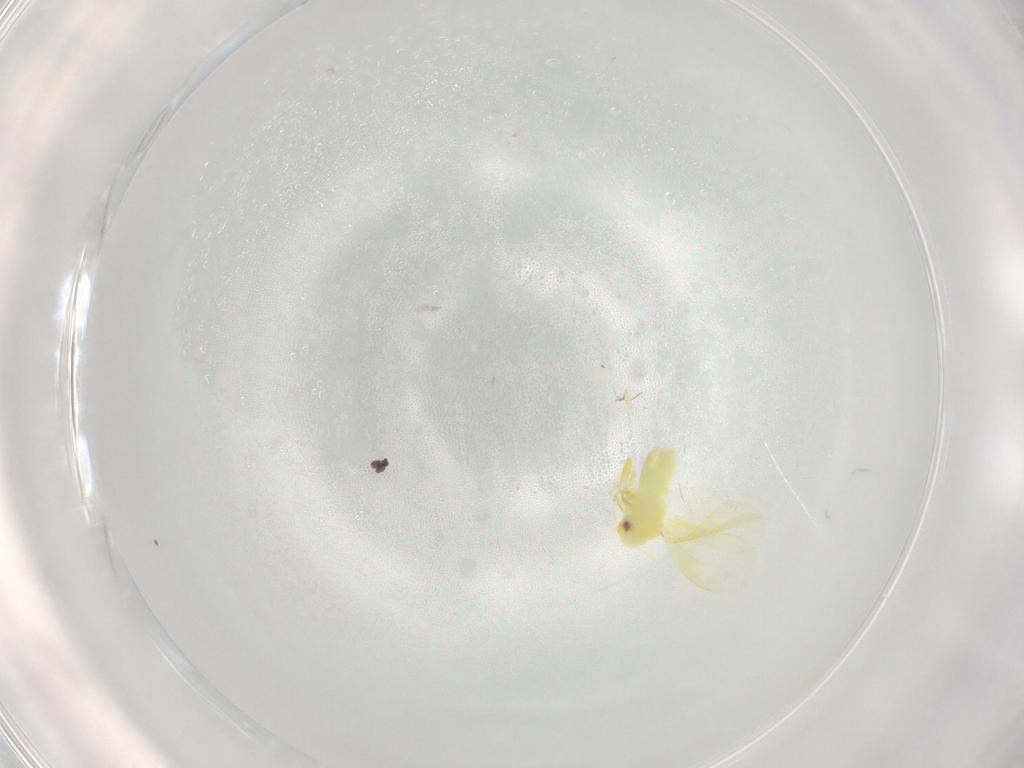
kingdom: Animalia
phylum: Arthropoda
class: Insecta
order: Hemiptera
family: Aleyrodidae
